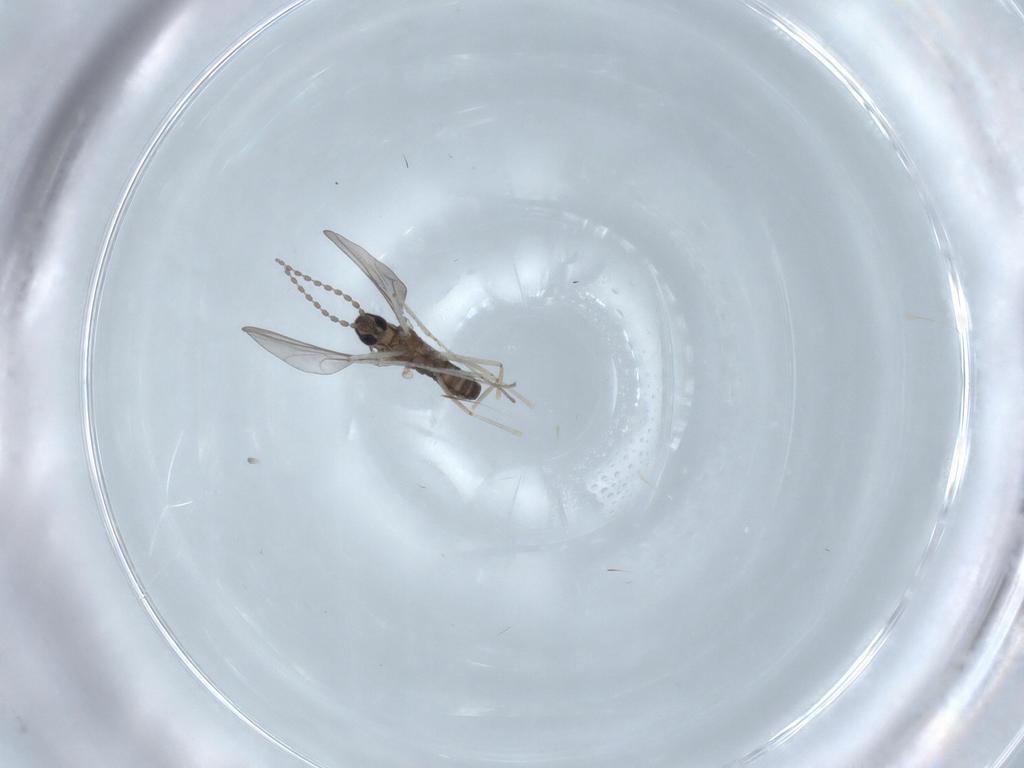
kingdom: Animalia
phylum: Arthropoda
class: Insecta
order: Diptera
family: Cecidomyiidae
